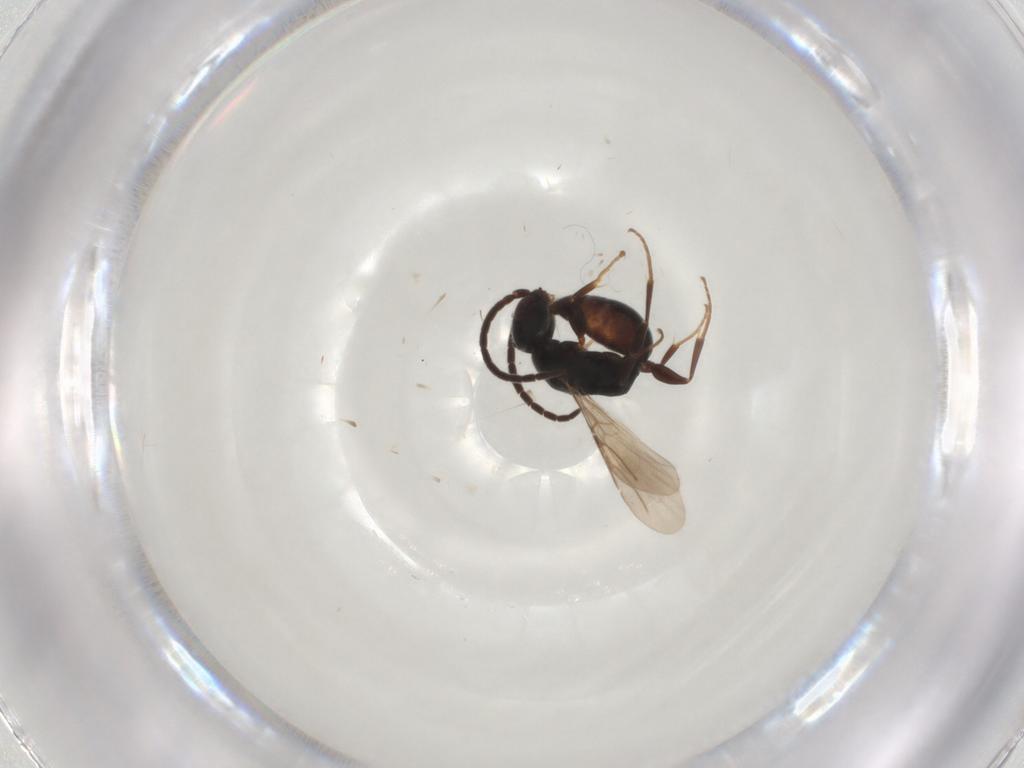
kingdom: Animalia
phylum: Arthropoda
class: Insecta
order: Hymenoptera
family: Bethylidae
